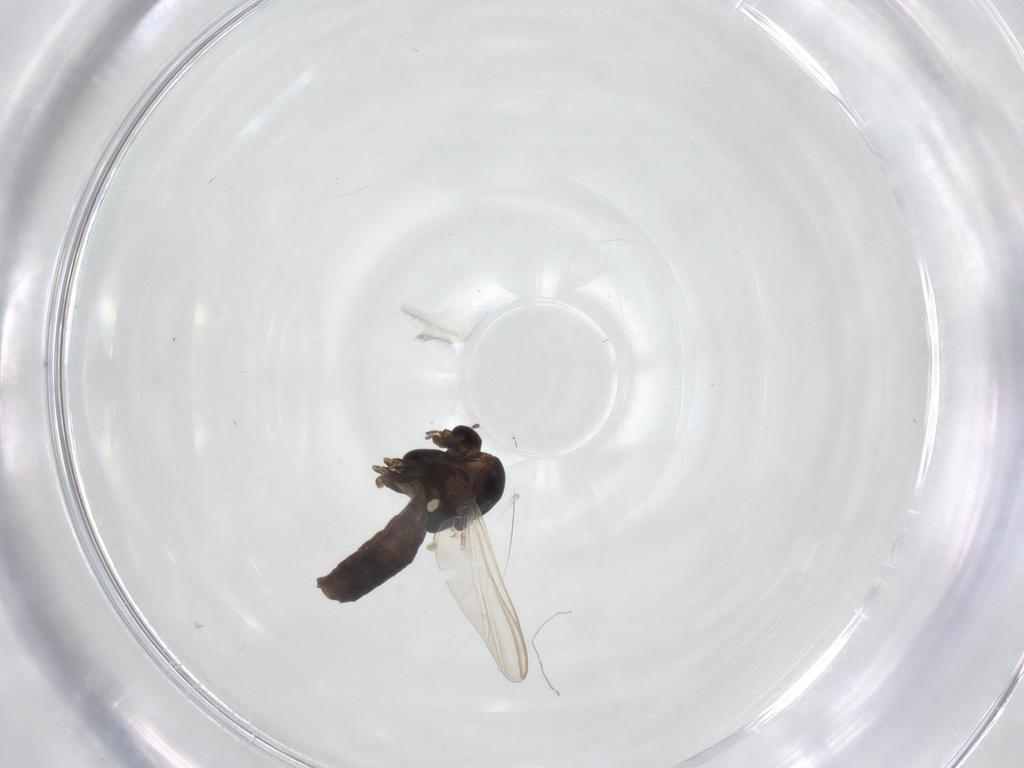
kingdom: Animalia
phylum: Arthropoda
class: Insecta
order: Diptera
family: Chironomidae
